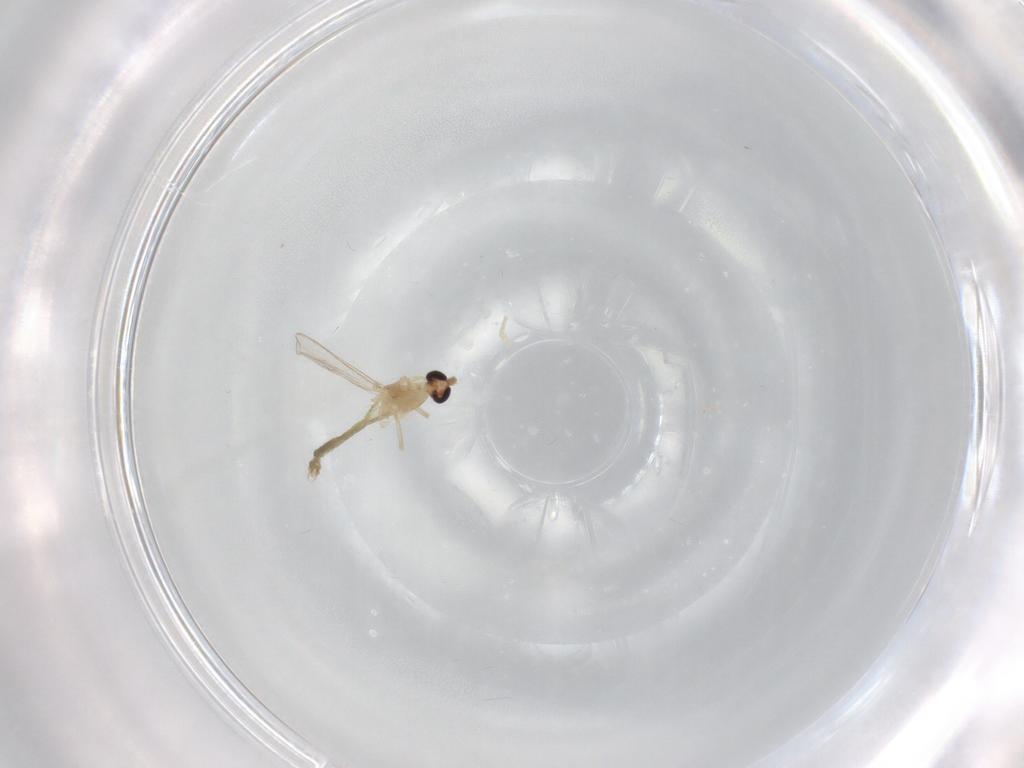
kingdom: Animalia
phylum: Arthropoda
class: Insecta
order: Diptera
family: Chironomidae
